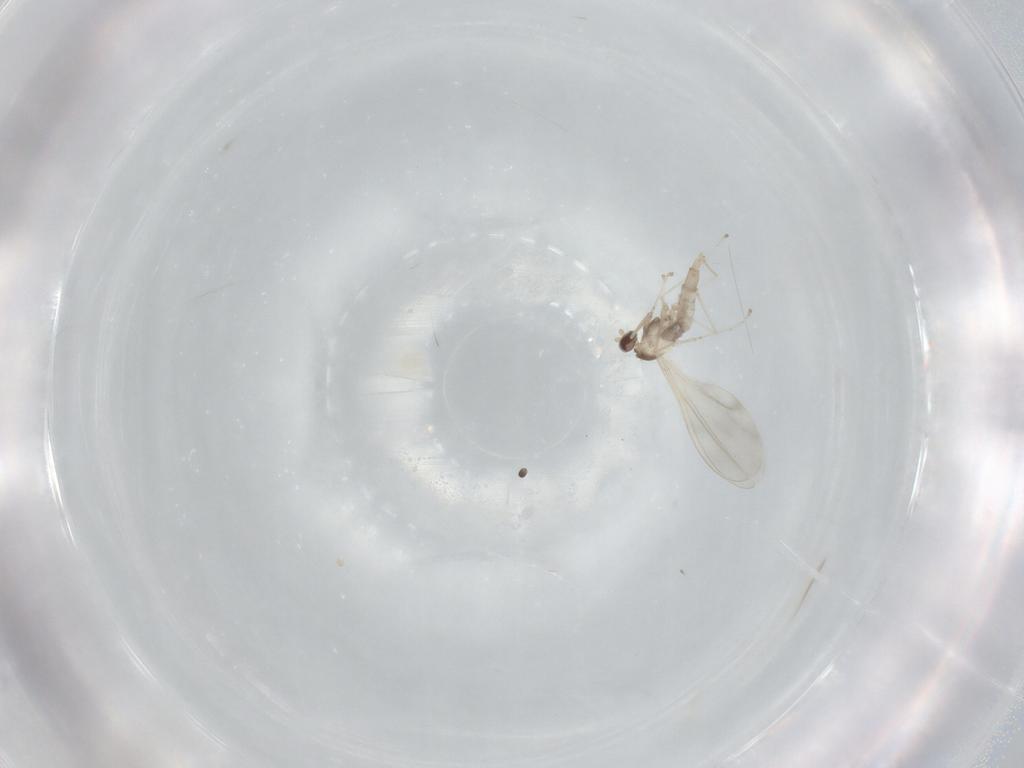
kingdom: Animalia
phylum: Arthropoda
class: Insecta
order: Diptera
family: Cecidomyiidae
